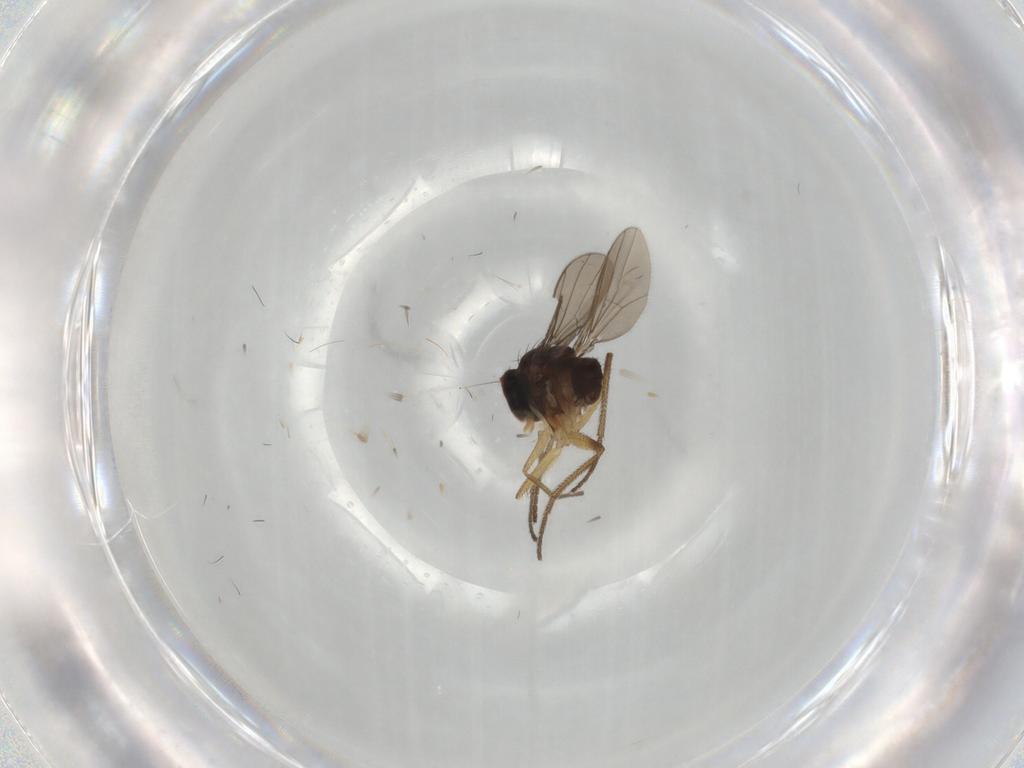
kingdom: Animalia
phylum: Arthropoda
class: Insecta
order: Diptera
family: Dolichopodidae
